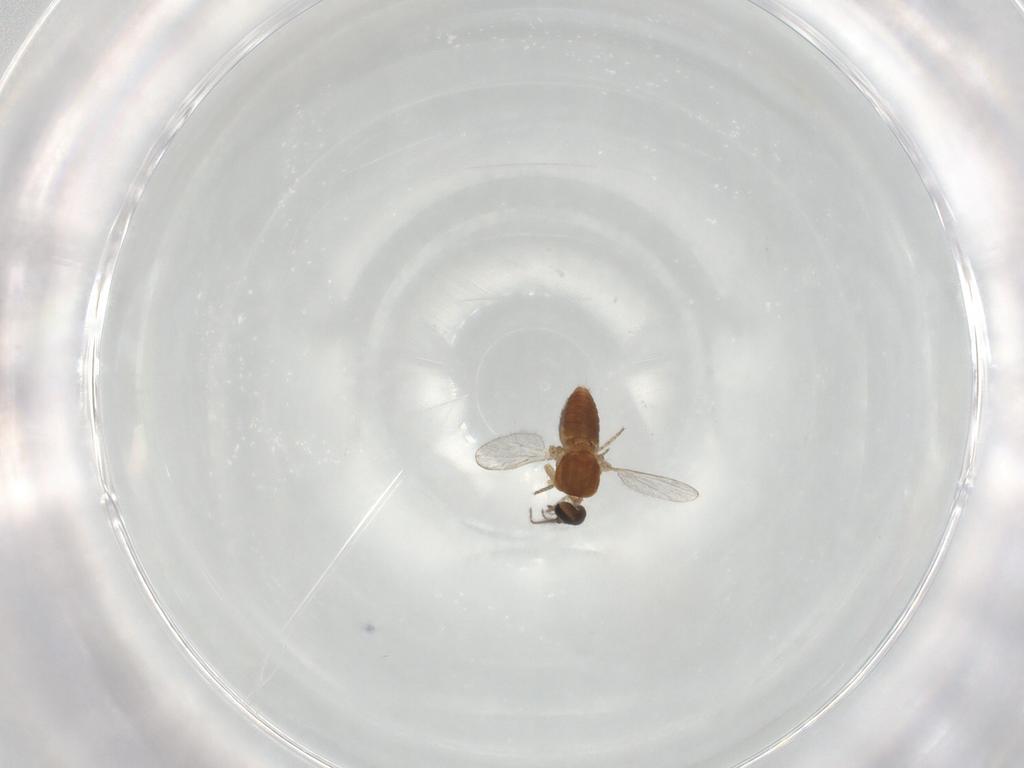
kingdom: Animalia
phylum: Arthropoda
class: Insecta
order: Diptera
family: Ceratopogonidae
